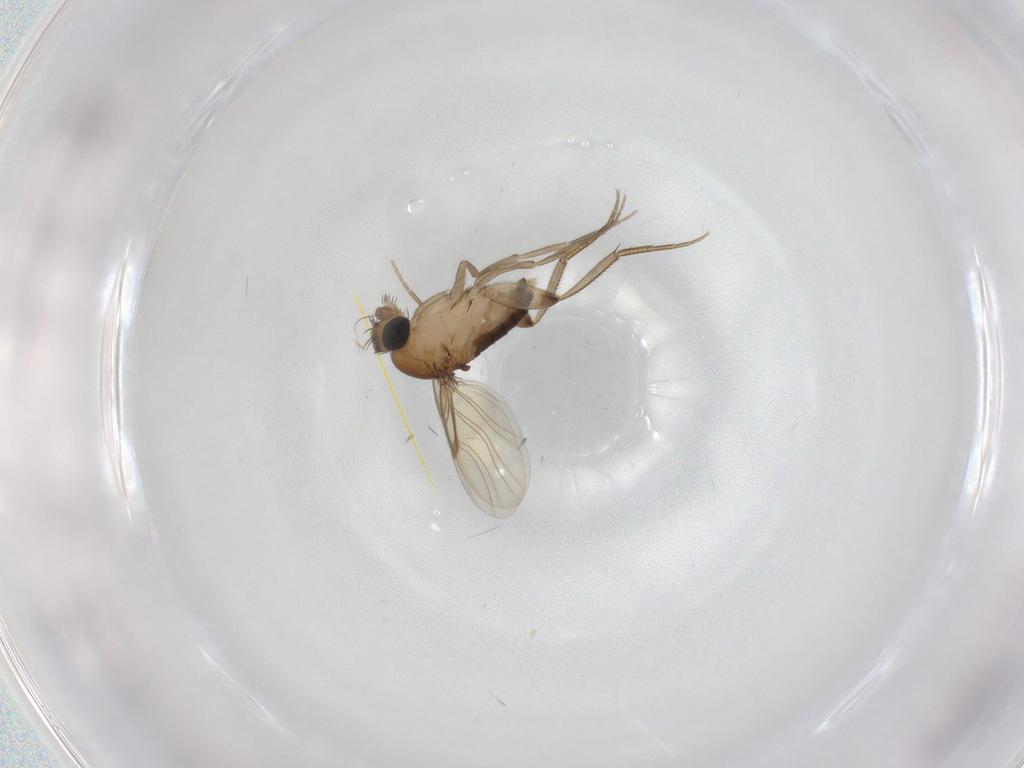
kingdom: Animalia
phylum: Arthropoda
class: Insecta
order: Diptera
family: Phoridae
